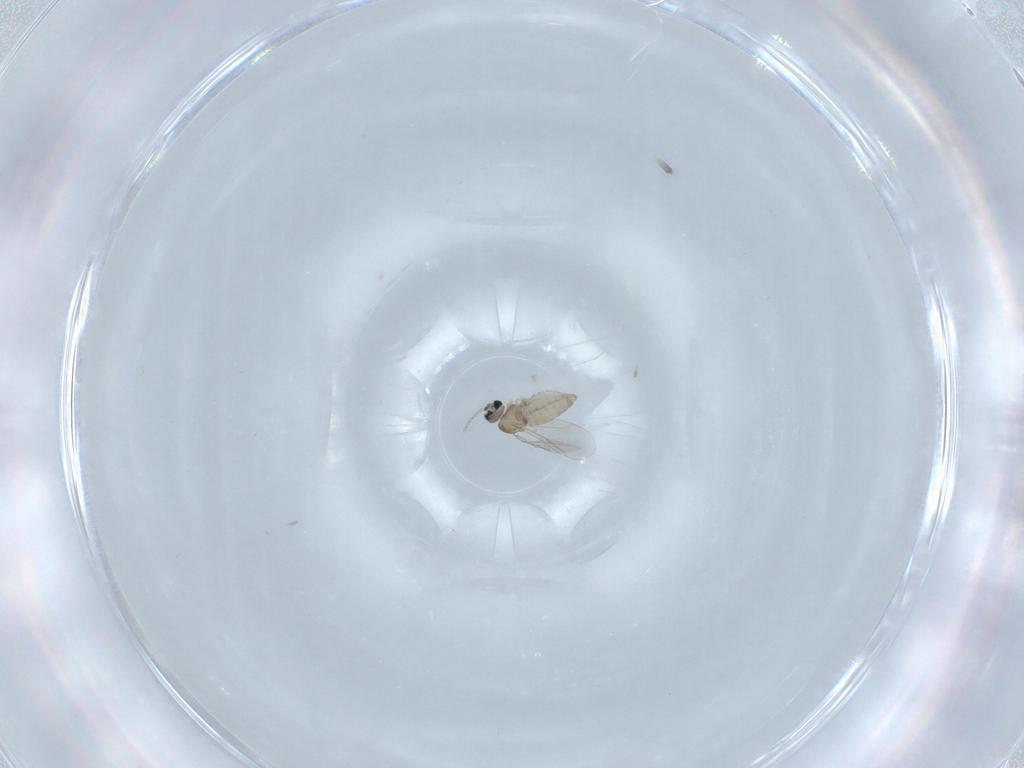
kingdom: Animalia
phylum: Arthropoda
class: Insecta
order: Diptera
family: Cecidomyiidae
